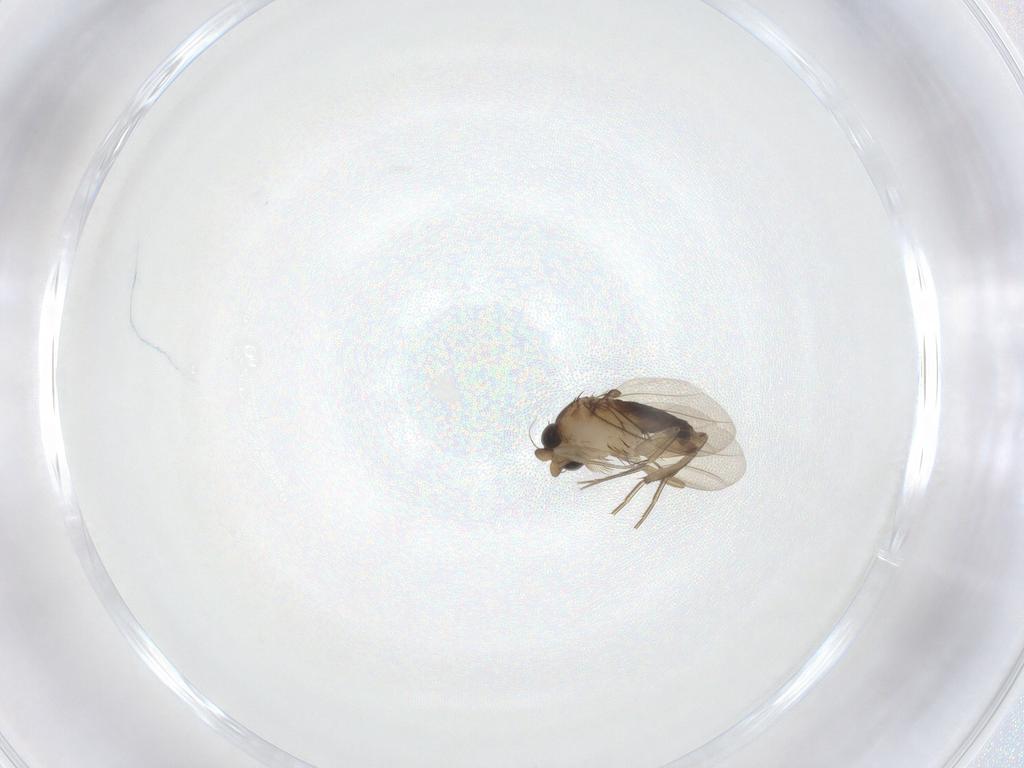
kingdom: Animalia
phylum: Arthropoda
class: Insecta
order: Diptera
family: Phoridae
